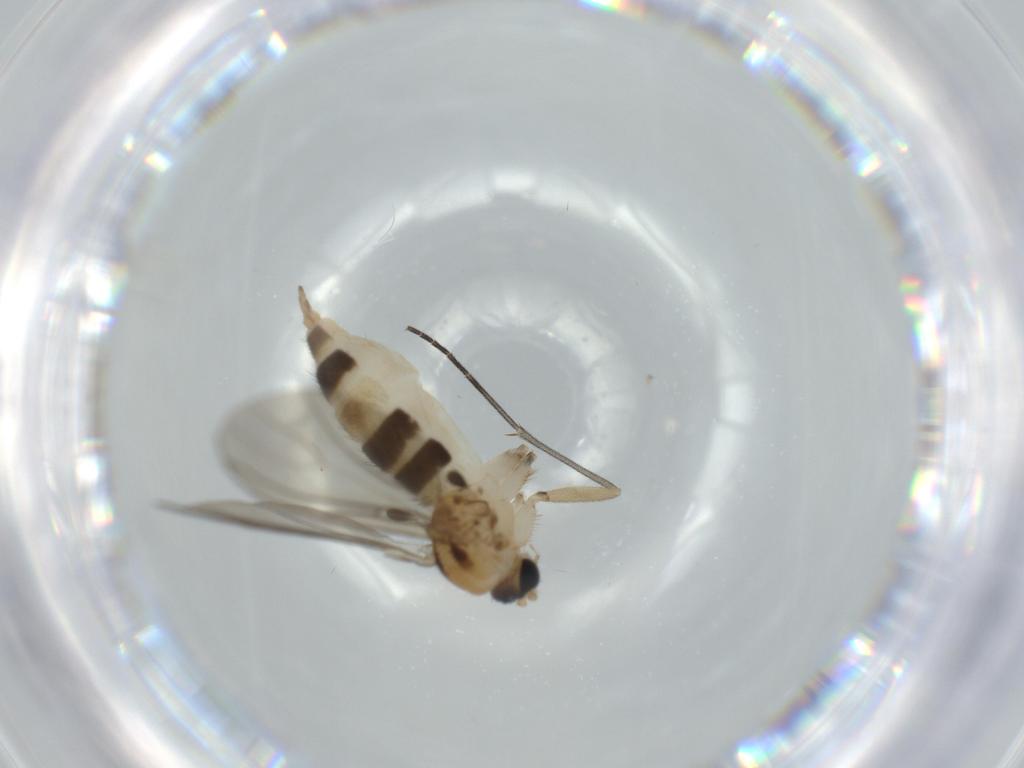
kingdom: Animalia
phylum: Arthropoda
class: Insecta
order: Diptera
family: Sciaridae
